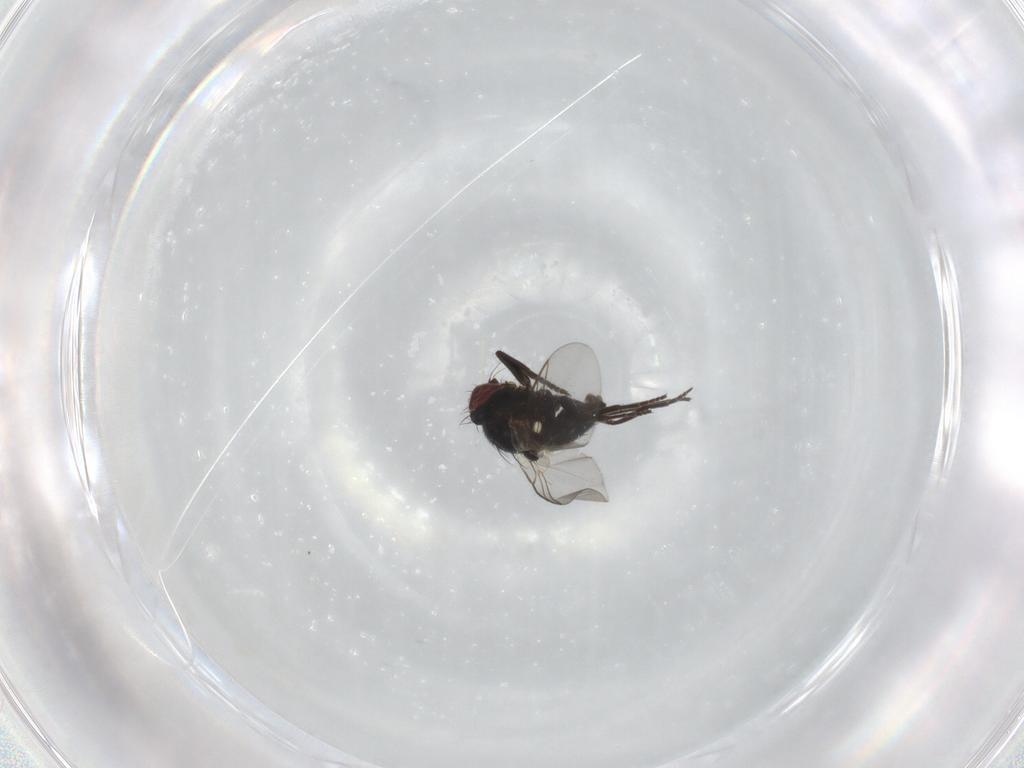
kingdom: Animalia
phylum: Arthropoda
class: Insecta
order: Diptera
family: Agromyzidae
